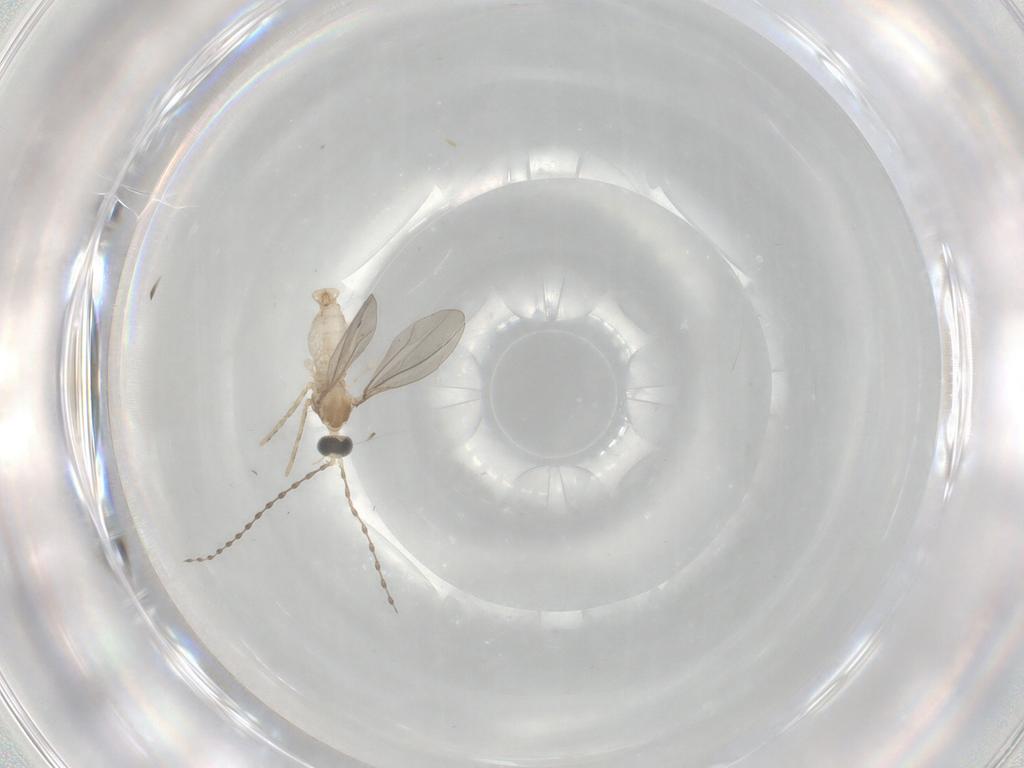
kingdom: Animalia
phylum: Arthropoda
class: Insecta
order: Diptera
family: Cecidomyiidae
